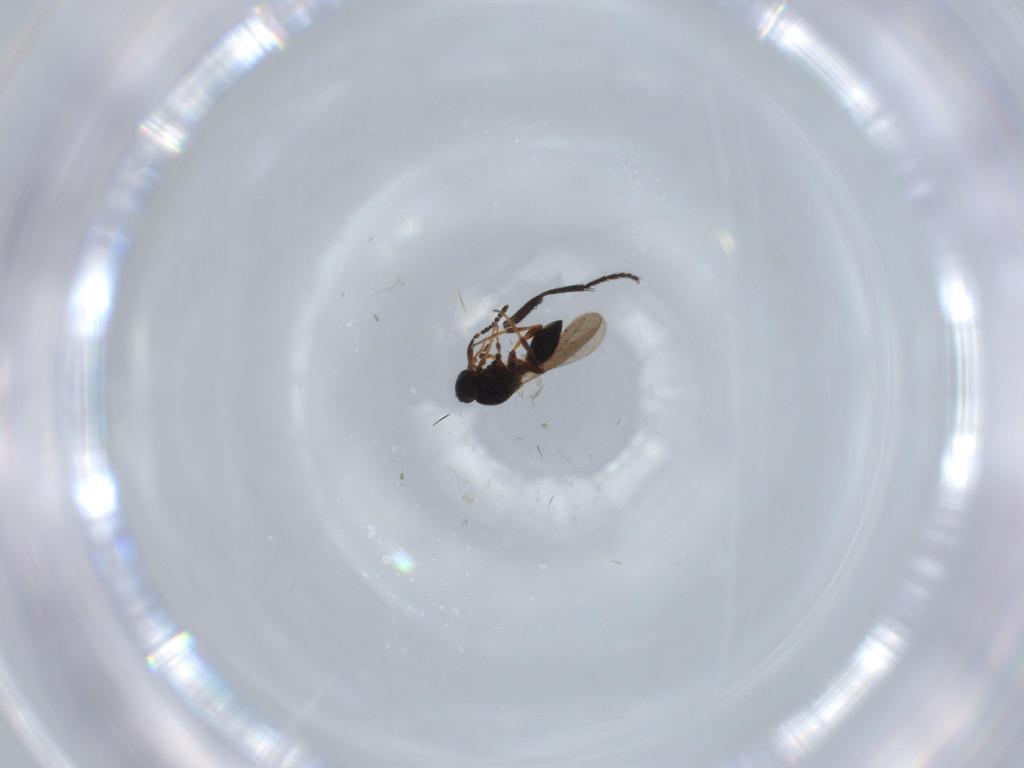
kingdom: Animalia
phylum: Arthropoda
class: Insecta
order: Hymenoptera
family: Platygastridae
